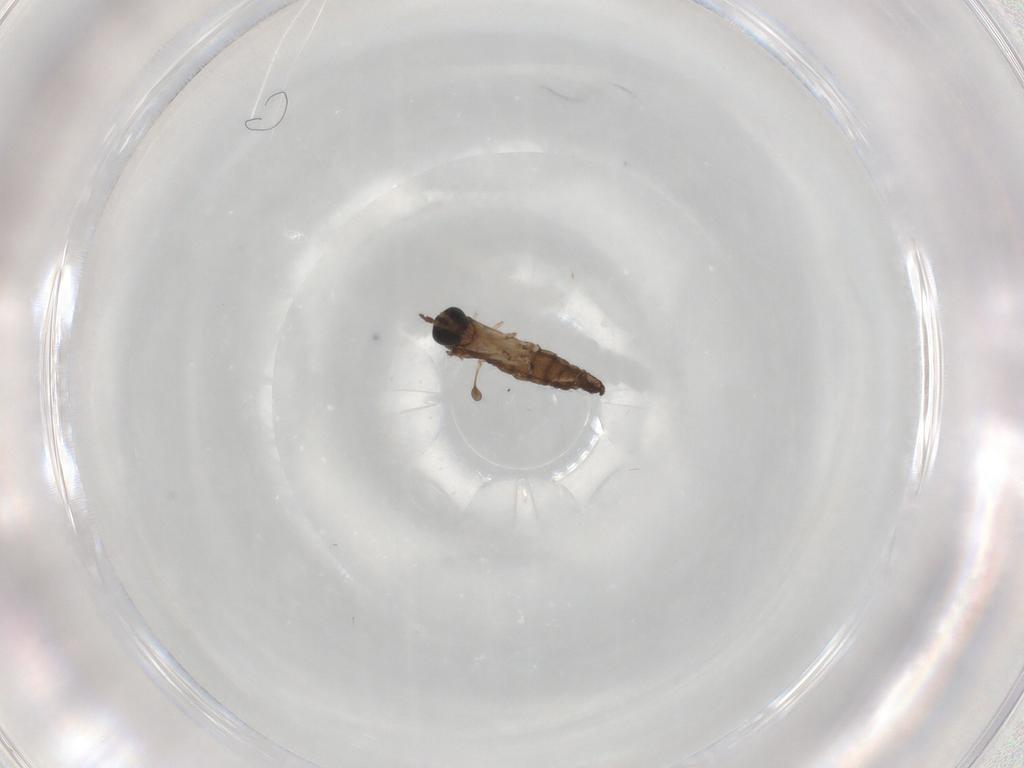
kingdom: Animalia
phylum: Arthropoda
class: Insecta
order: Diptera
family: Sciaridae
